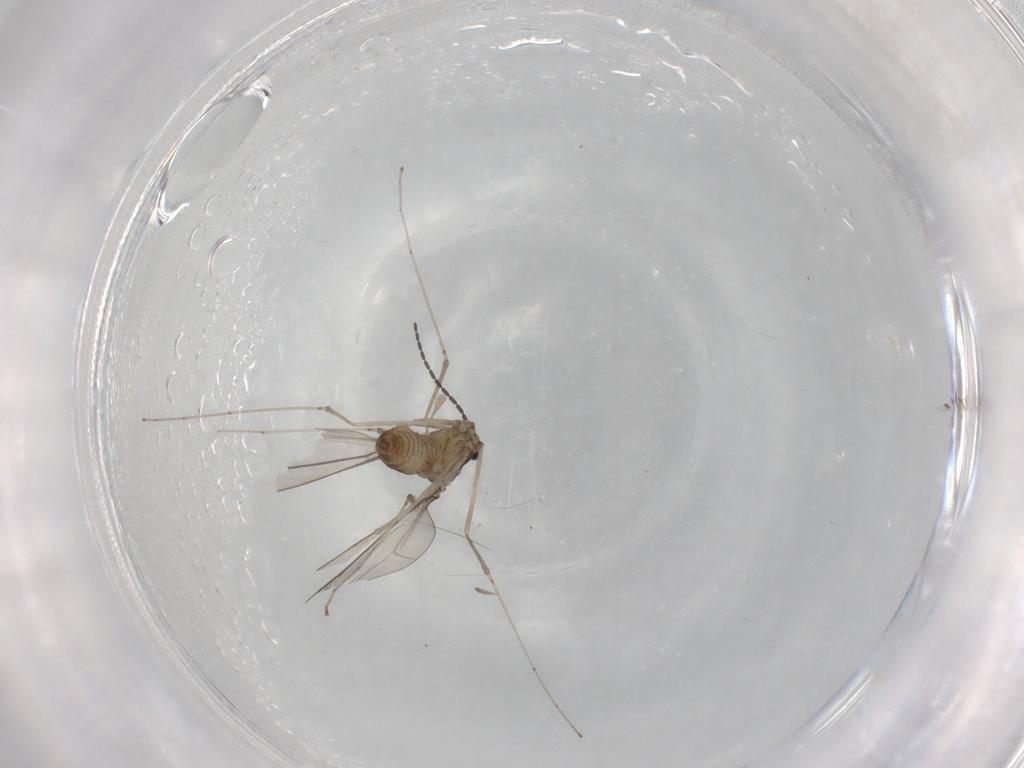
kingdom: Animalia
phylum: Arthropoda
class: Insecta
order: Diptera
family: Cecidomyiidae
